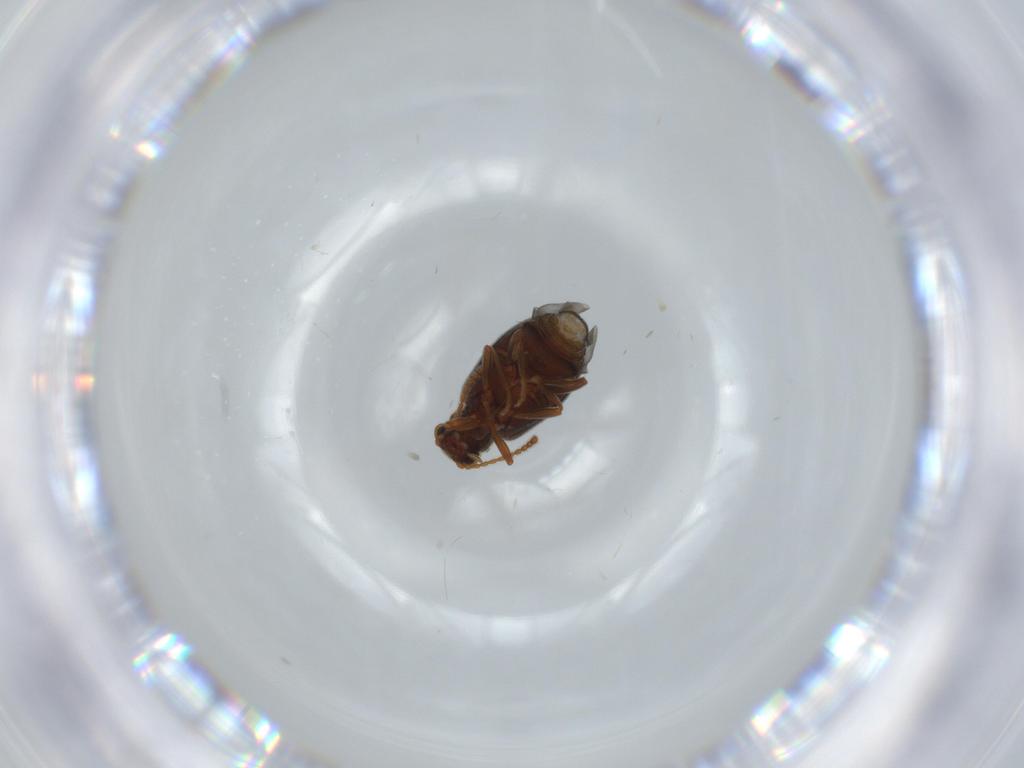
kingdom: Animalia
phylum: Arthropoda
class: Insecta
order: Coleoptera
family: Aderidae
